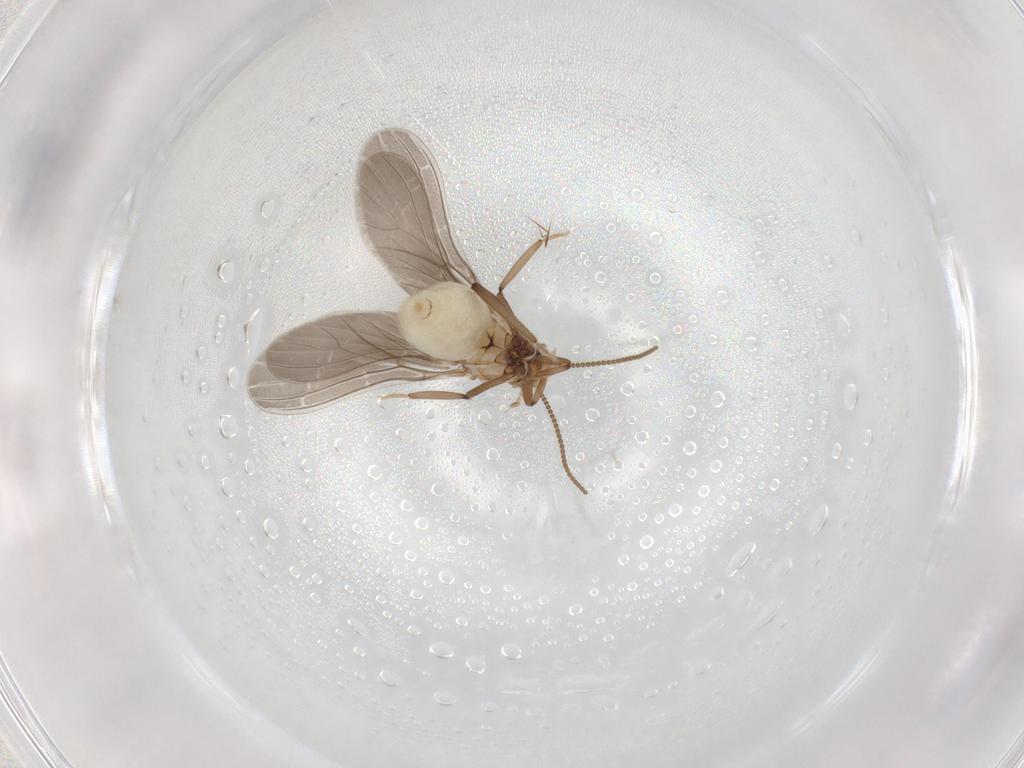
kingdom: Animalia
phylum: Arthropoda
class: Insecta
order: Neuroptera
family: Coniopterygidae
